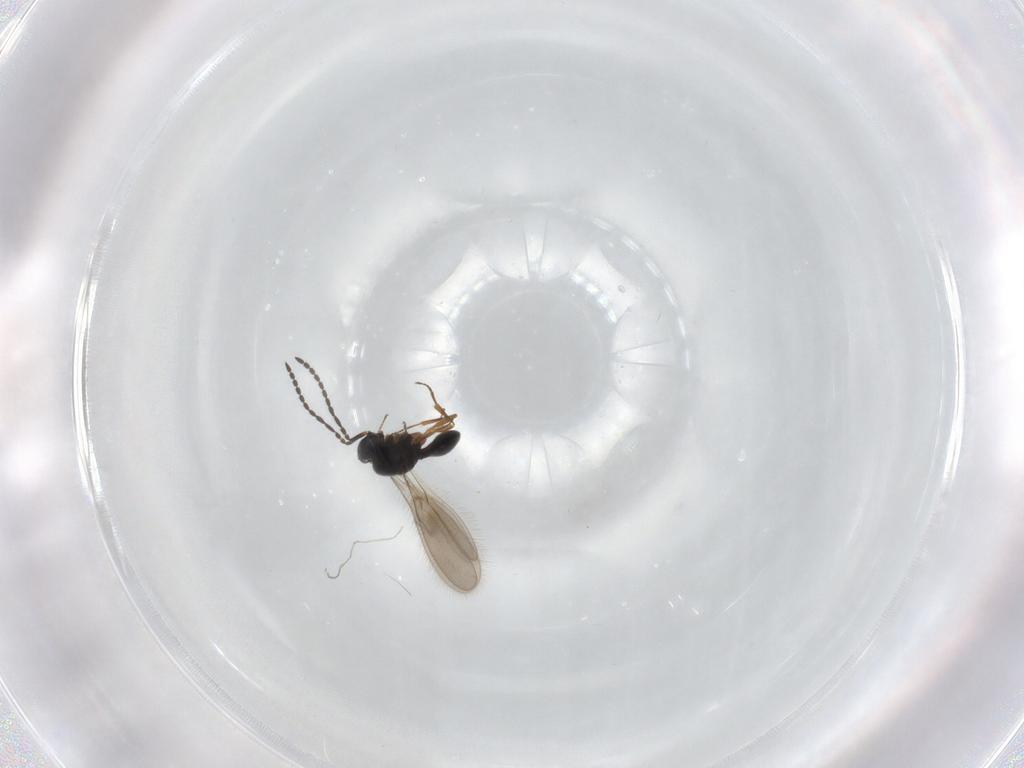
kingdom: Animalia
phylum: Arthropoda
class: Insecta
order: Hymenoptera
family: Scelionidae
